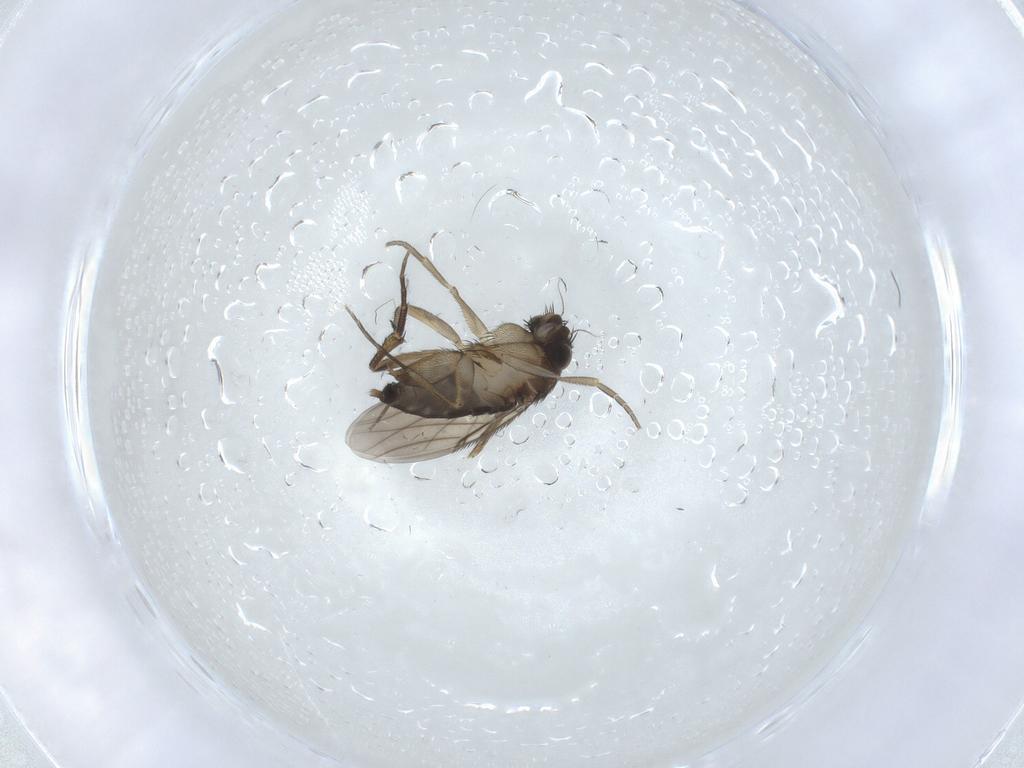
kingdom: Animalia
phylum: Arthropoda
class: Insecta
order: Diptera
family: Phoridae
